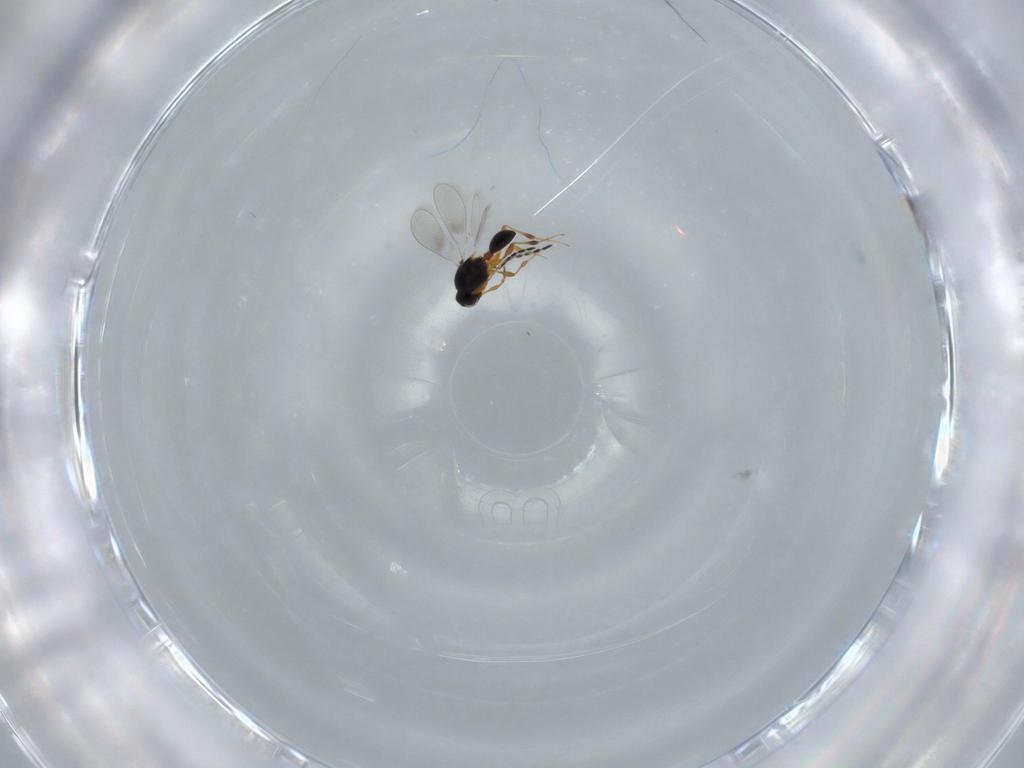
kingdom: Animalia
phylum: Arthropoda
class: Insecta
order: Hymenoptera
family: Platygastridae
